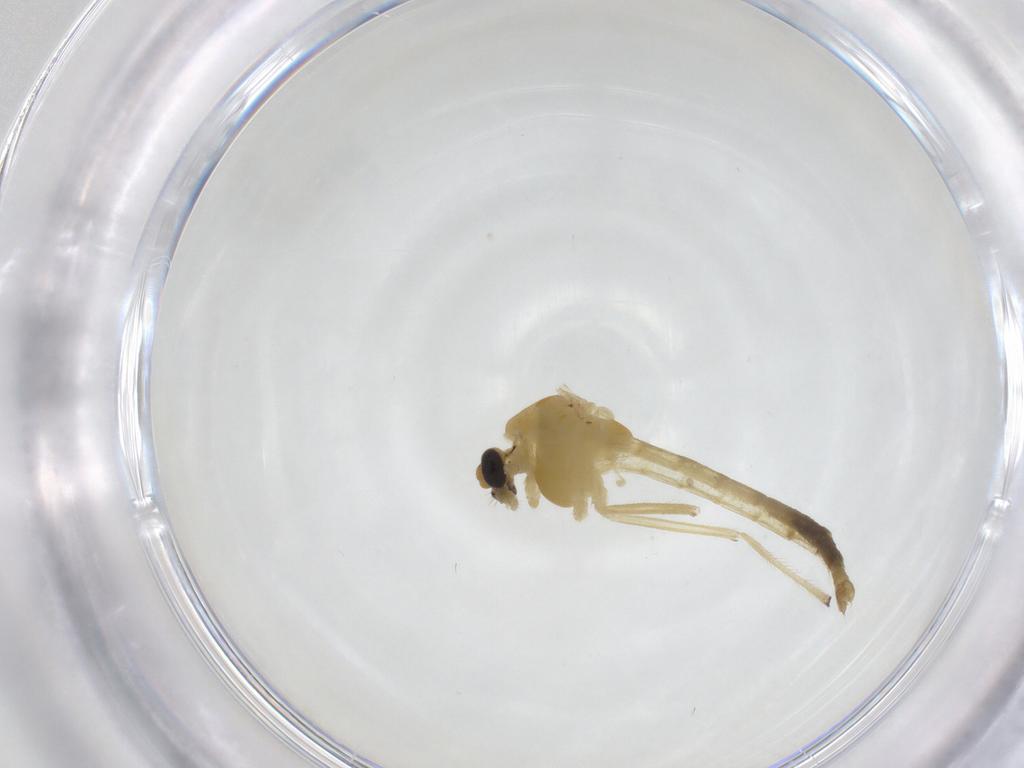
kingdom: Animalia
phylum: Arthropoda
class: Insecta
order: Diptera
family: Chironomidae
